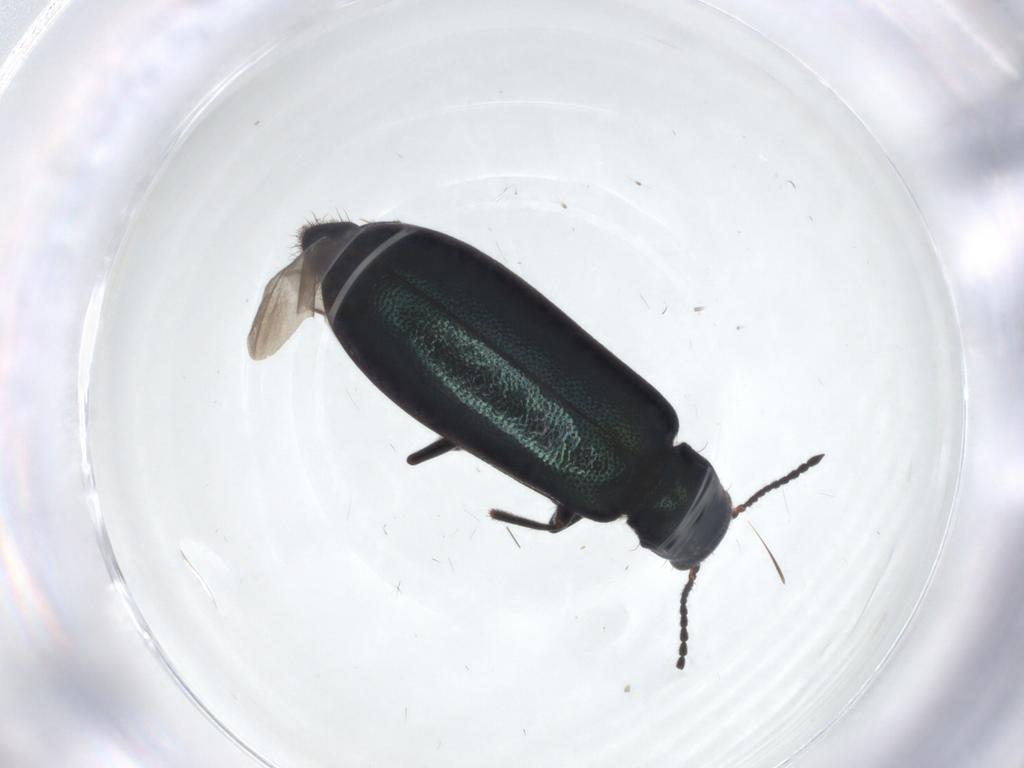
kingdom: Animalia
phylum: Arthropoda
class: Insecta
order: Coleoptera
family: Melyridae
